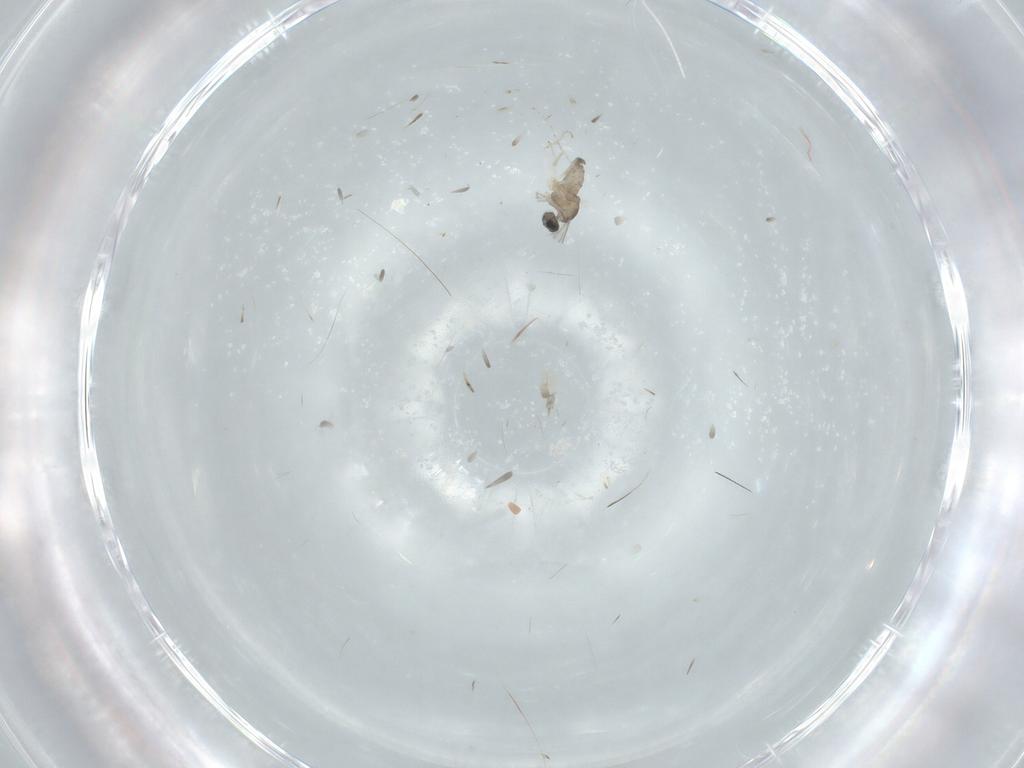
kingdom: Animalia
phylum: Arthropoda
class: Insecta
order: Diptera
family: Cecidomyiidae
